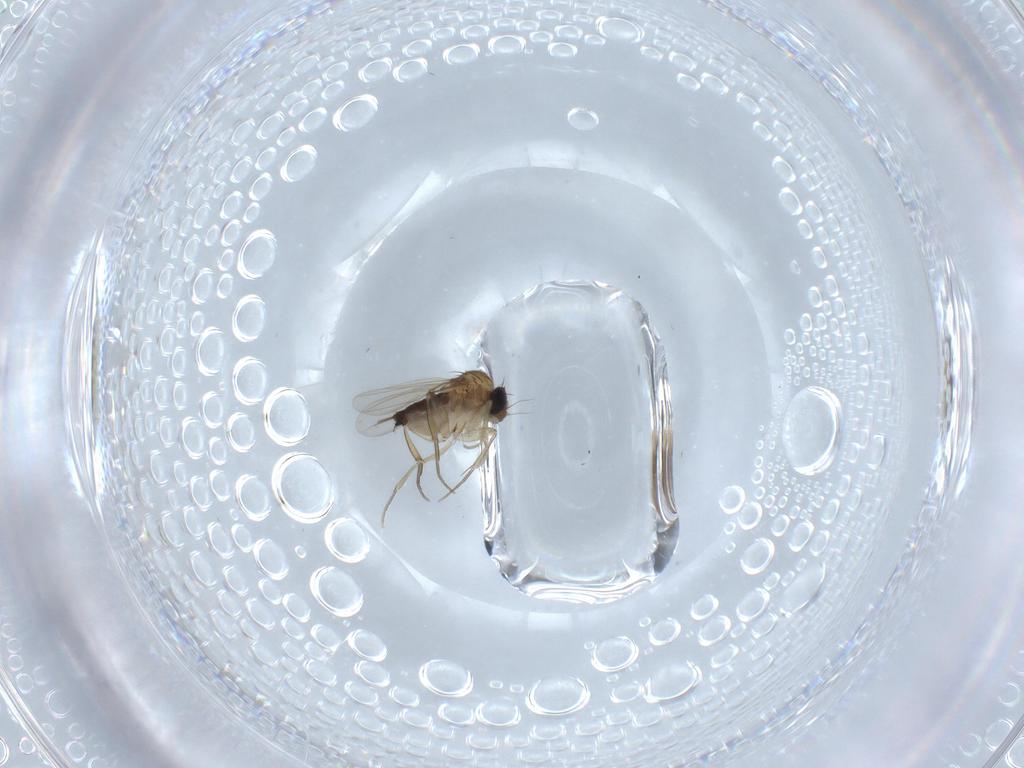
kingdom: Animalia
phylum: Arthropoda
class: Insecta
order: Diptera
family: Phoridae
